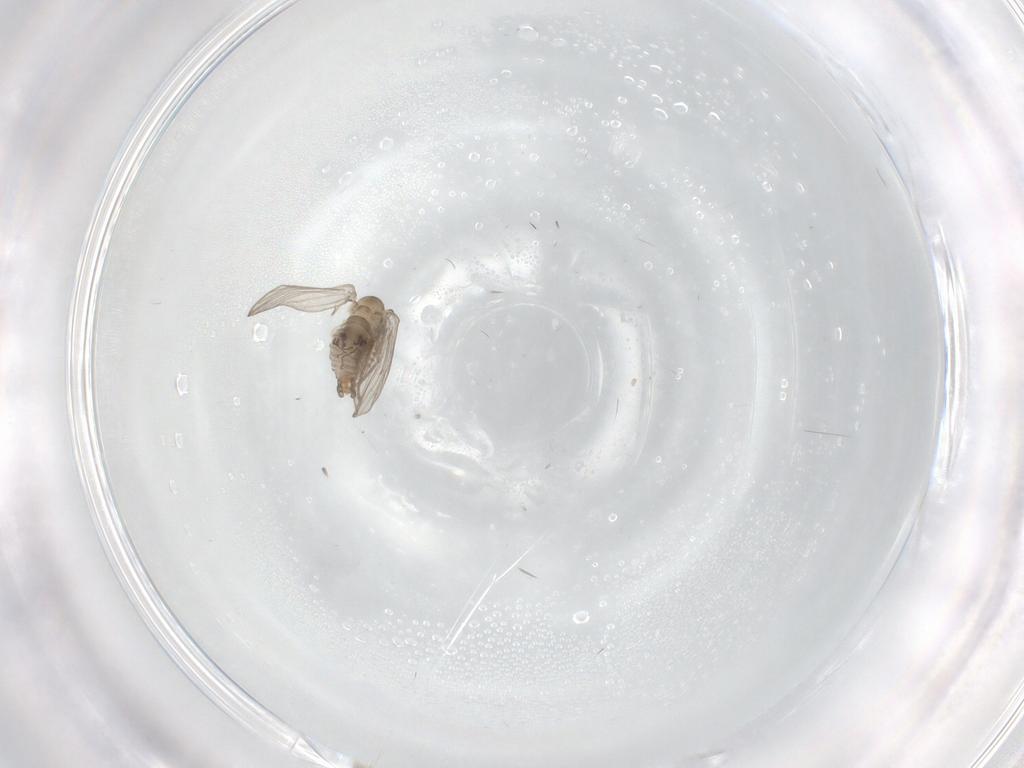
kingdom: Animalia
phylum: Arthropoda
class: Insecta
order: Diptera
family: Psychodidae
